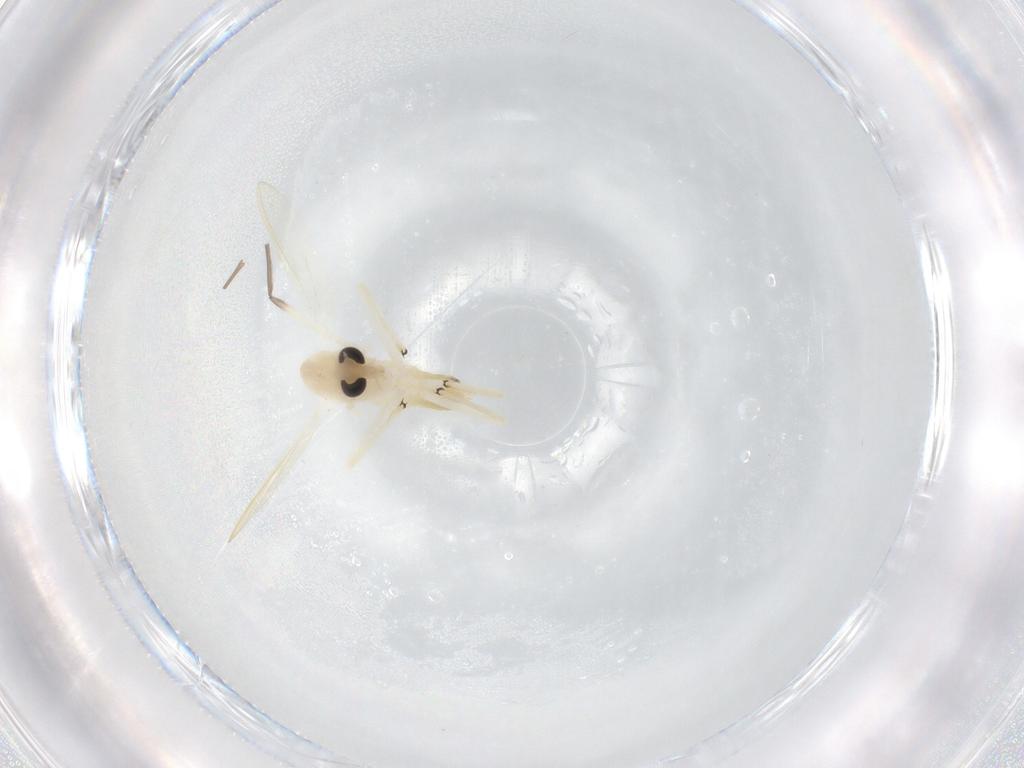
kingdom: Animalia
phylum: Arthropoda
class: Insecta
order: Diptera
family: Chironomidae
